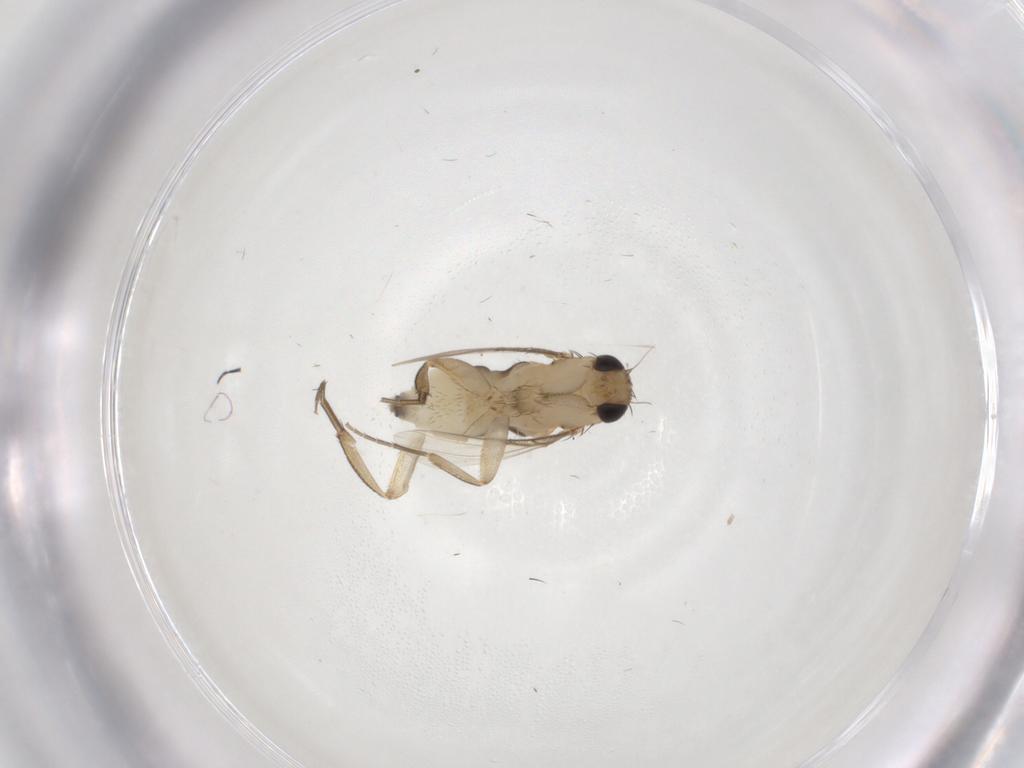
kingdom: Animalia
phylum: Arthropoda
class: Insecta
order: Diptera
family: Phoridae
